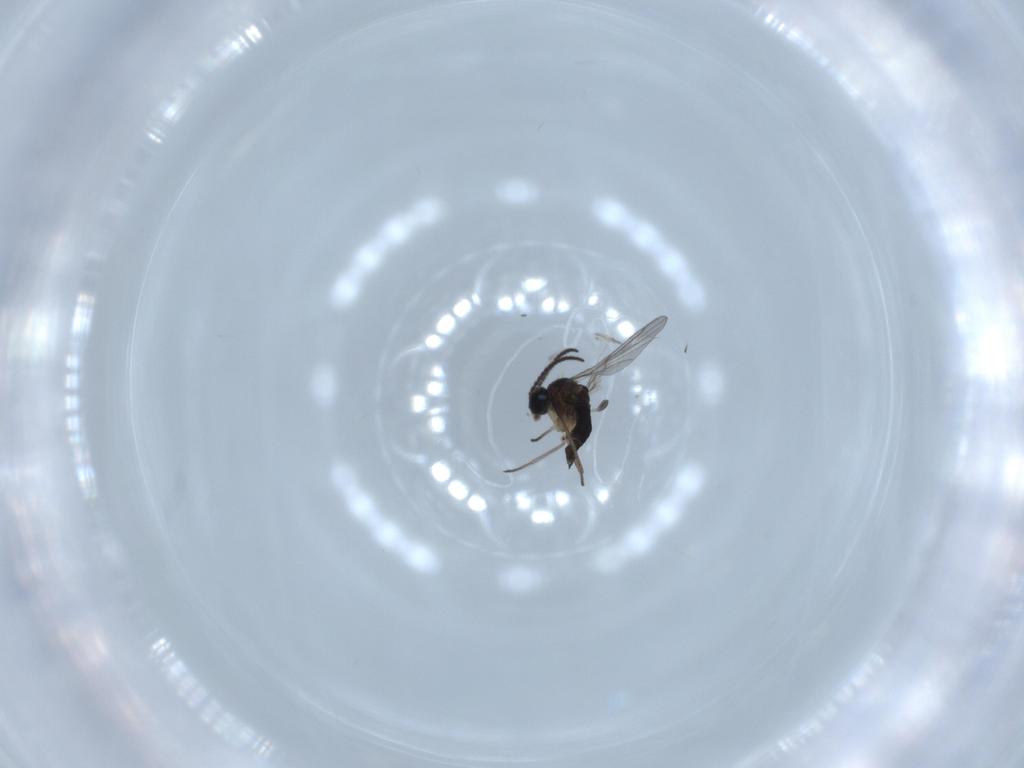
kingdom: Animalia
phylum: Arthropoda
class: Insecta
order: Diptera
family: Sciaridae
